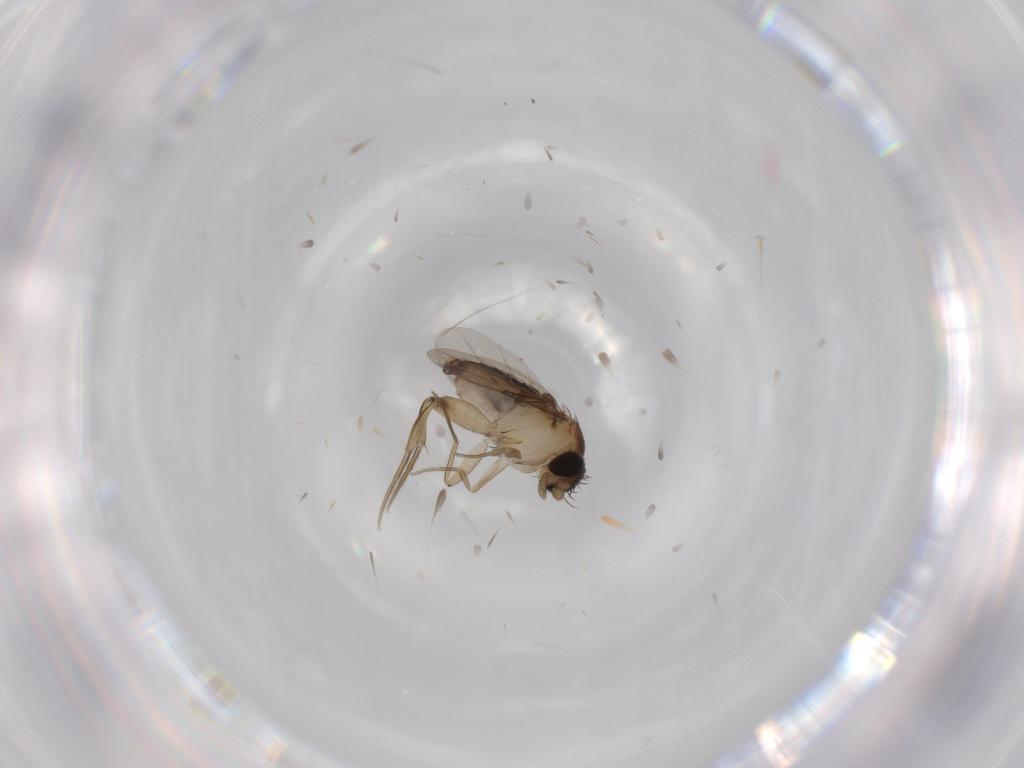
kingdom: Animalia
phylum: Arthropoda
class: Insecta
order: Diptera
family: Phoridae
